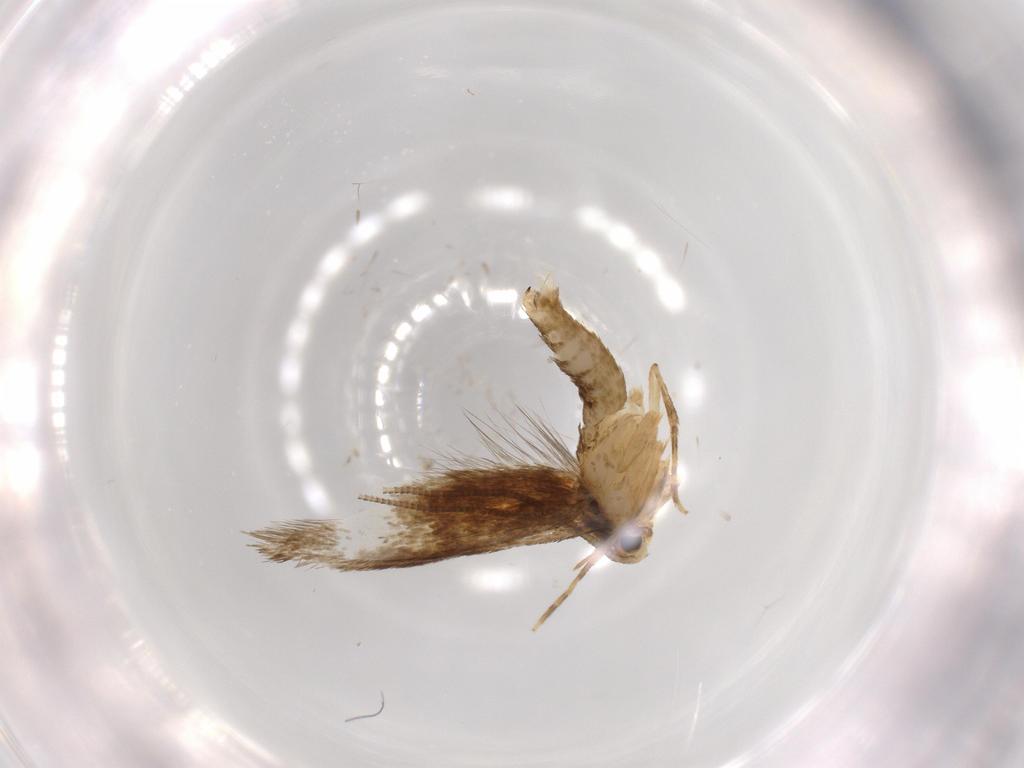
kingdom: Animalia
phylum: Arthropoda
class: Insecta
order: Lepidoptera
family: Tineidae
